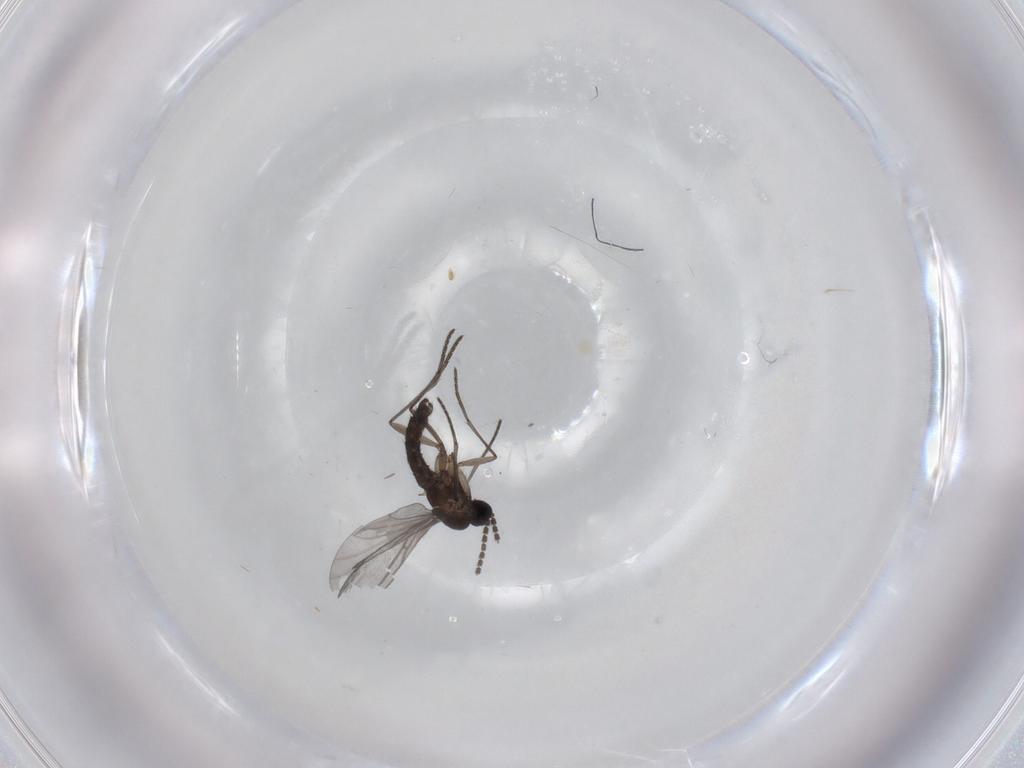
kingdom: Animalia
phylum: Arthropoda
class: Insecta
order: Diptera
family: Sciaridae
